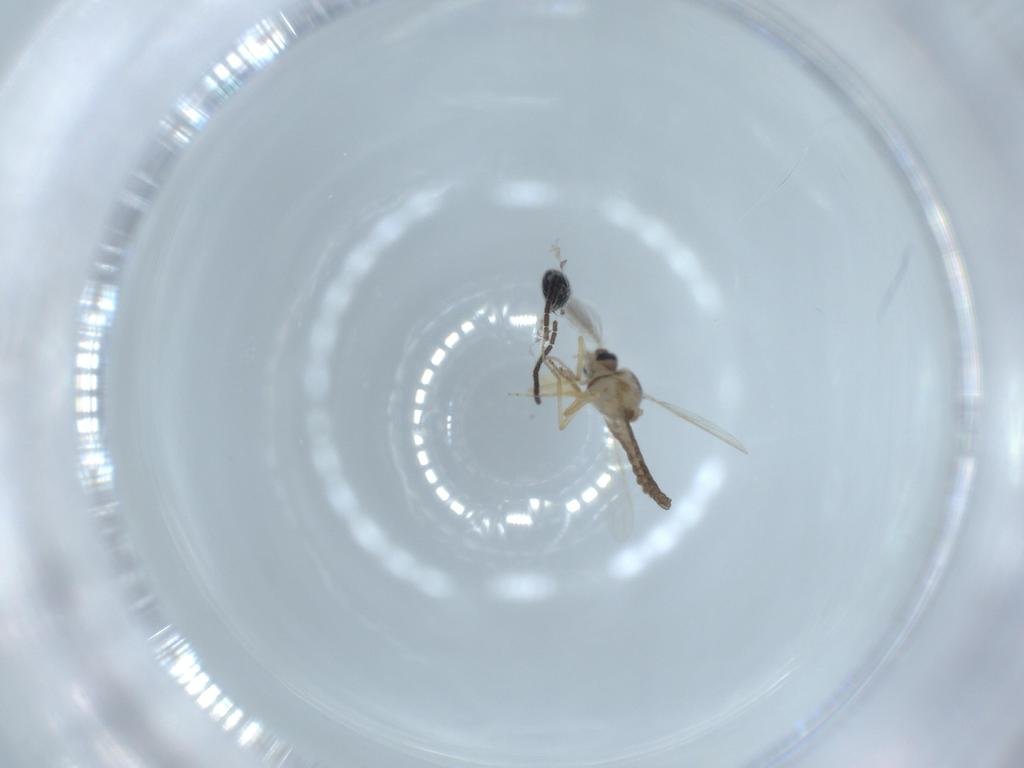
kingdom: Animalia
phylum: Arthropoda
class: Insecta
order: Diptera
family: Ceratopogonidae
